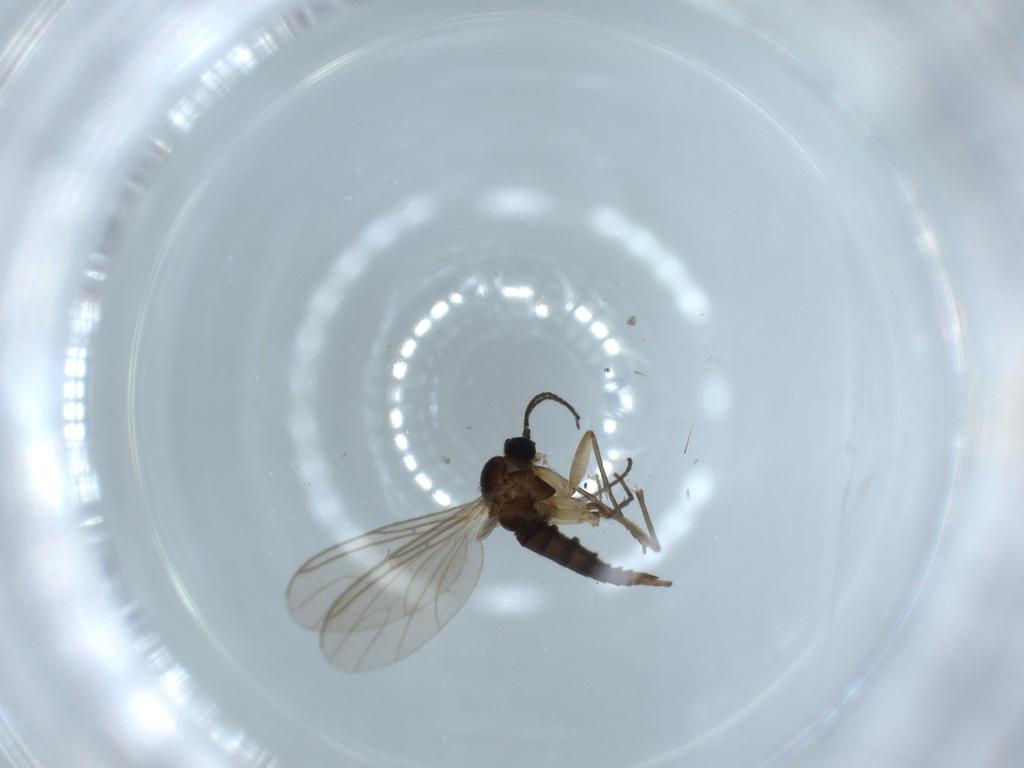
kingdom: Animalia
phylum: Arthropoda
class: Insecta
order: Diptera
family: Sciaridae
